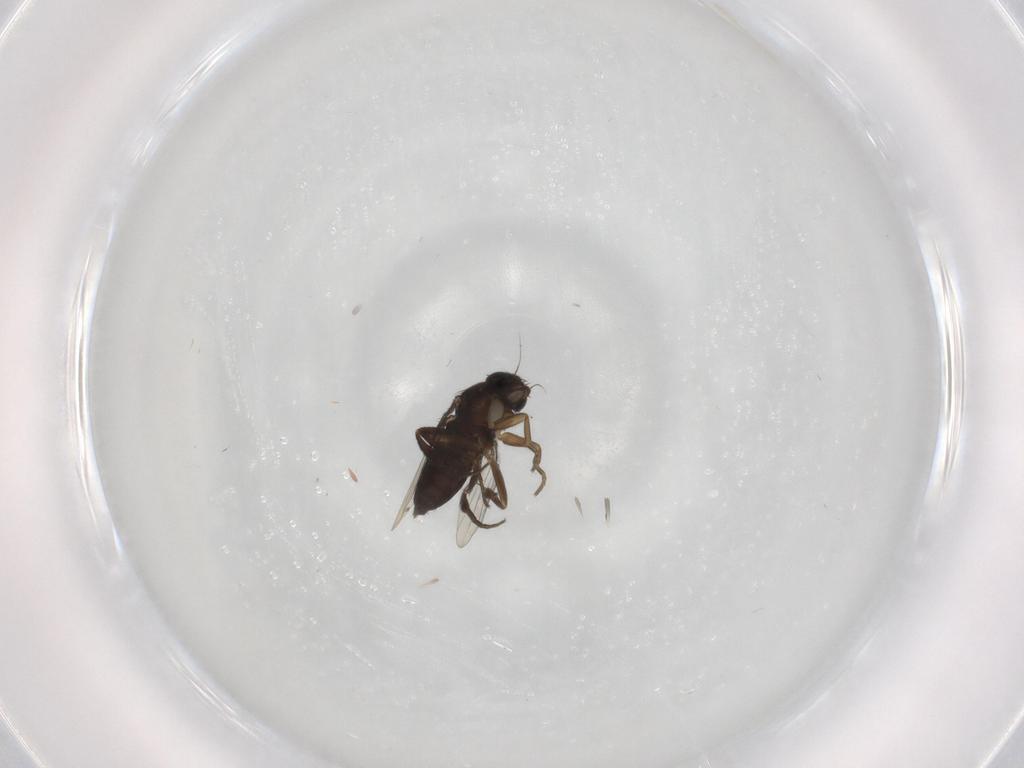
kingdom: Animalia
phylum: Arthropoda
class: Insecta
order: Diptera
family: Phoridae
